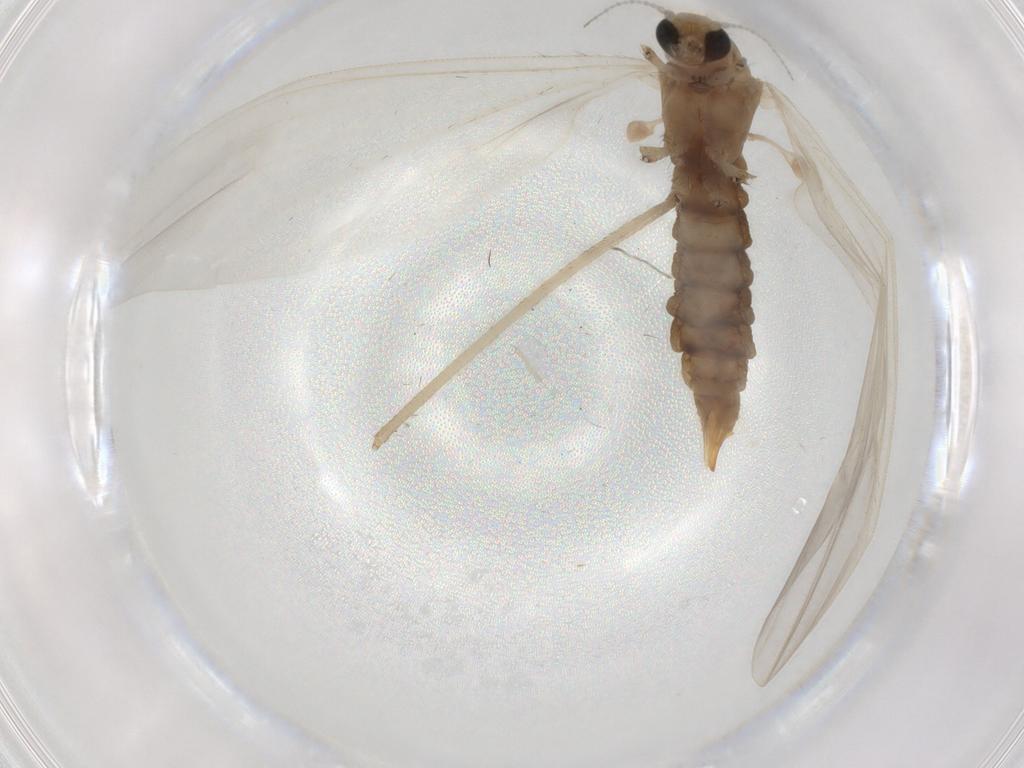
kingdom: Animalia
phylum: Arthropoda
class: Insecta
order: Diptera
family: Limoniidae
